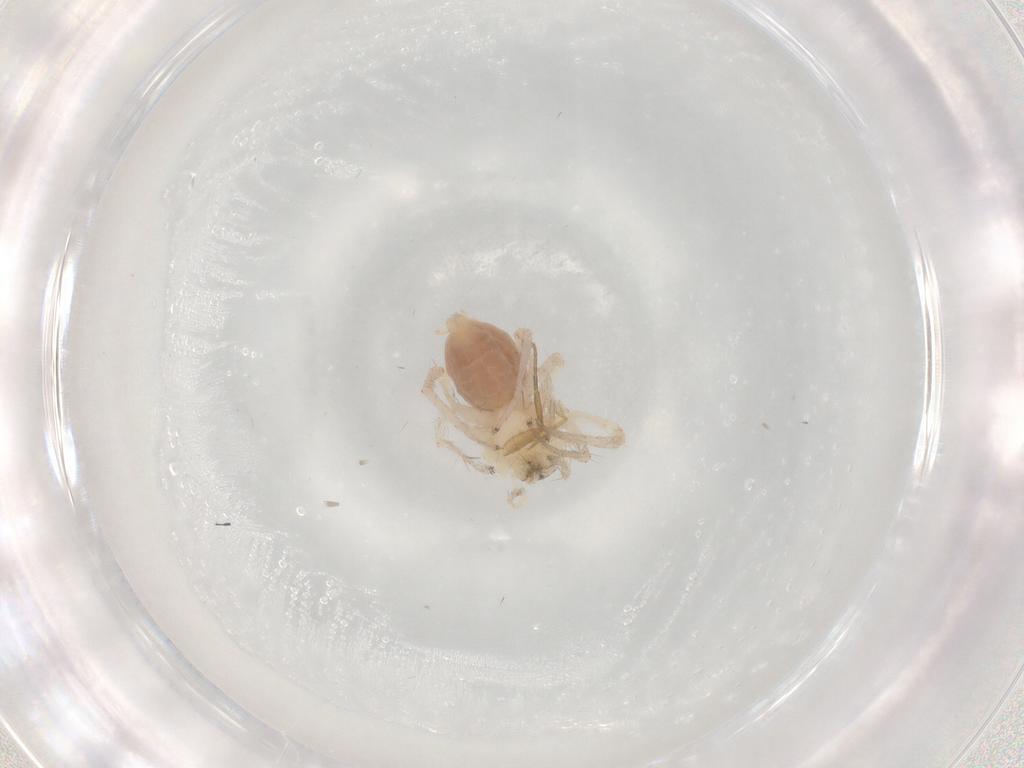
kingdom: Animalia
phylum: Arthropoda
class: Arachnida
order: Araneae
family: Anyphaenidae
